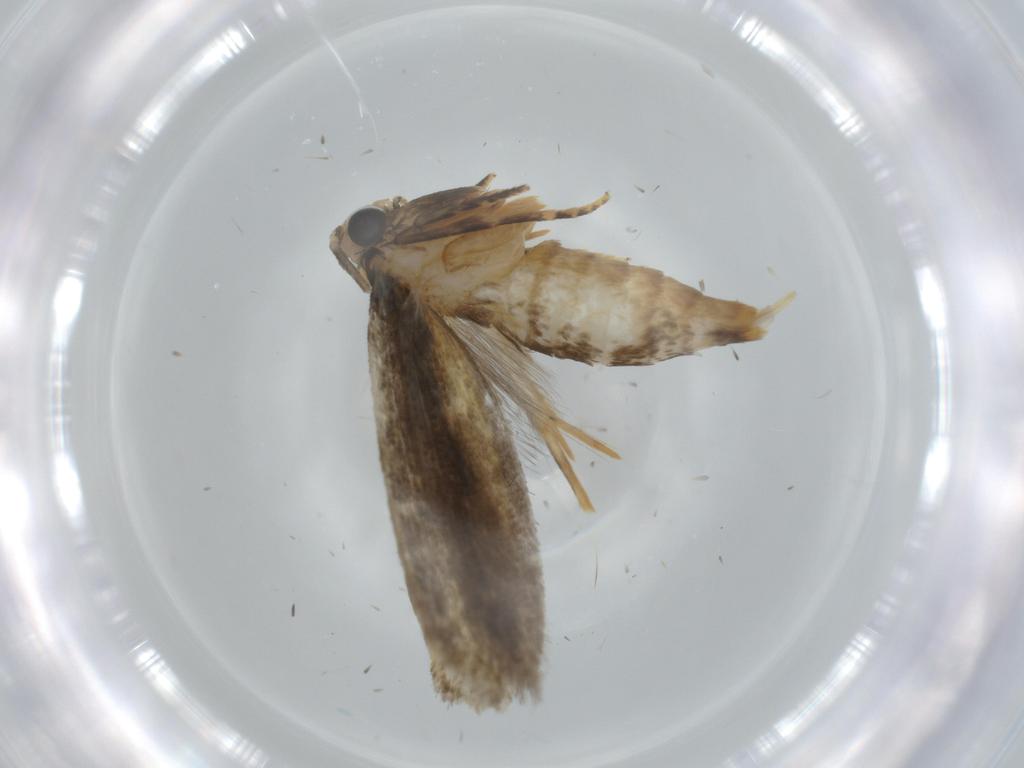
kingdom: Animalia
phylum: Arthropoda
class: Insecta
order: Lepidoptera
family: Tineidae
